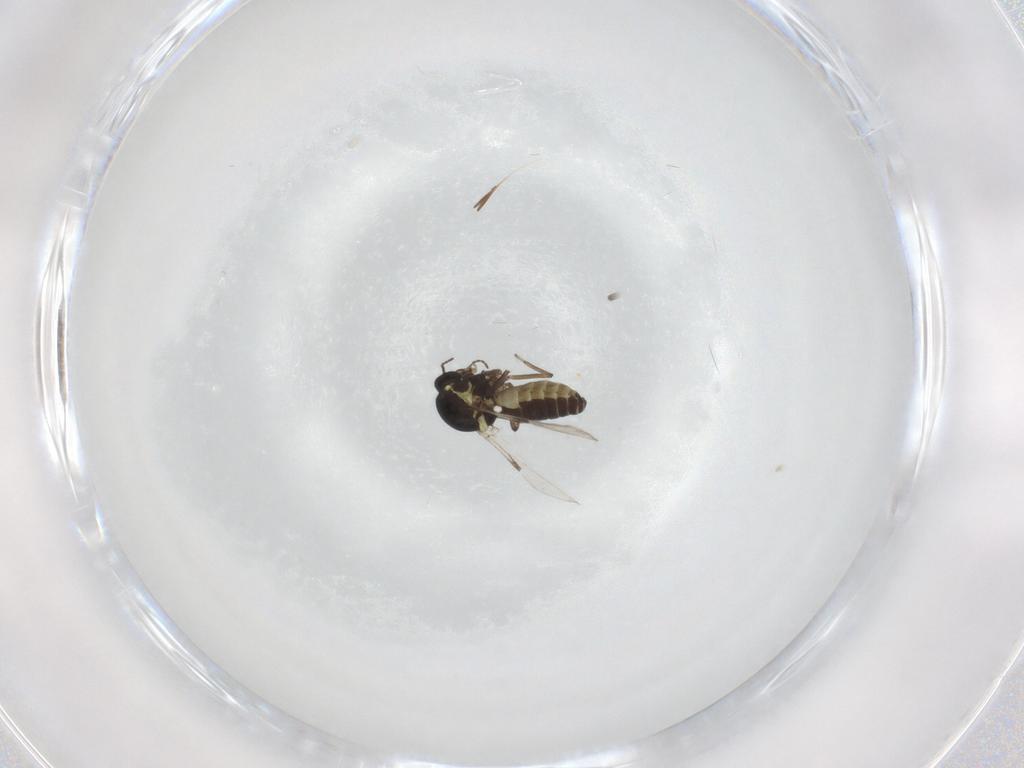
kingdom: Animalia
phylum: Arthropoda
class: Insecta
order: Diptera
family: Ceratopogonidae
